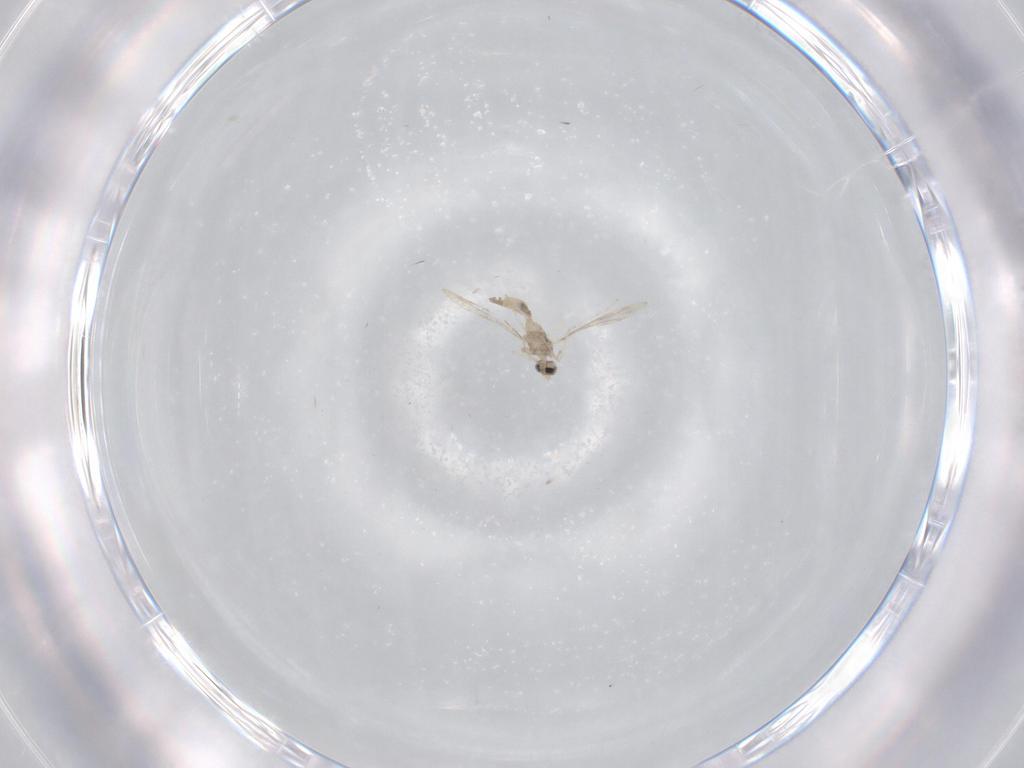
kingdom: Animalia
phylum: Arthropoda
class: Insecta
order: Diptera
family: Cecidomyiidae
